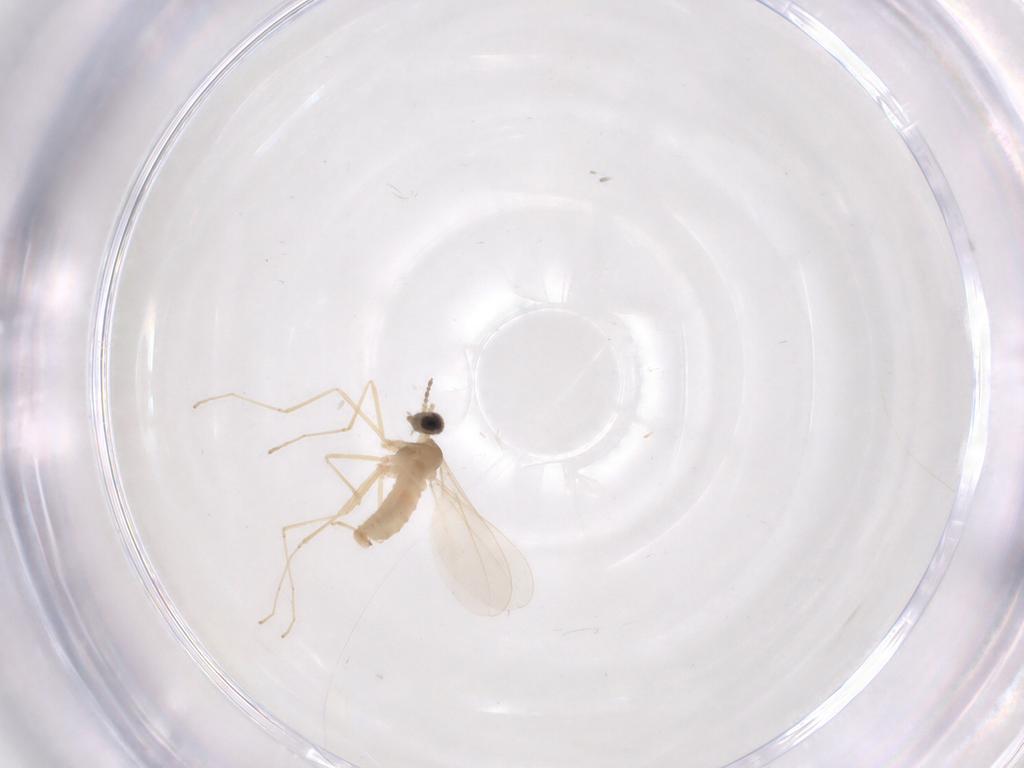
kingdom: Animalia
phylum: Arthropoda
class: Insecta
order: Diptera
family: Cecidomyiidae
